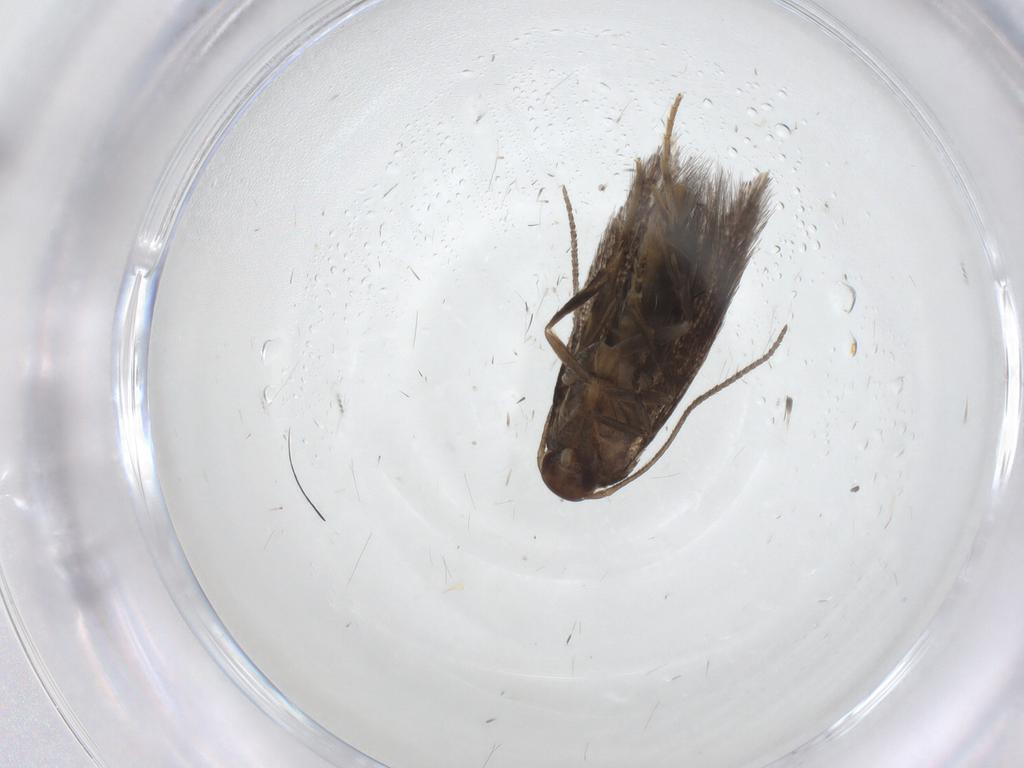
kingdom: Animalia
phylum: Arthropoda
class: Insecta
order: Lepidoptera
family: Elachistidae
